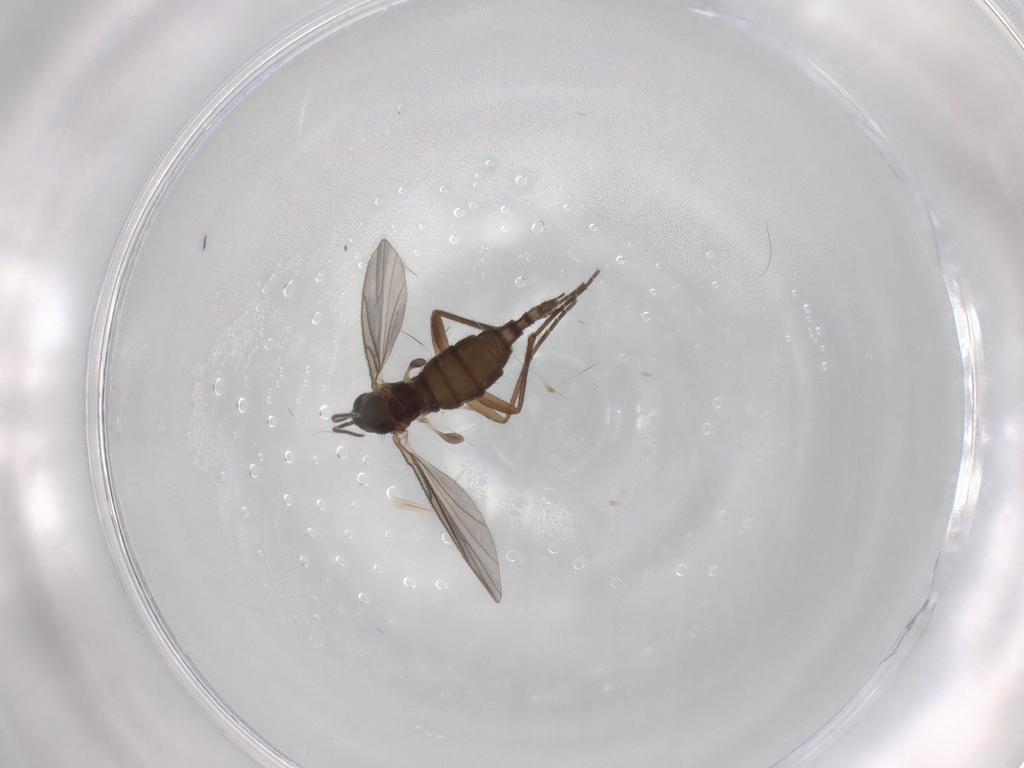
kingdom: Animalia
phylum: Arthropoda
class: Insecta
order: Diptera
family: Sciaridae
